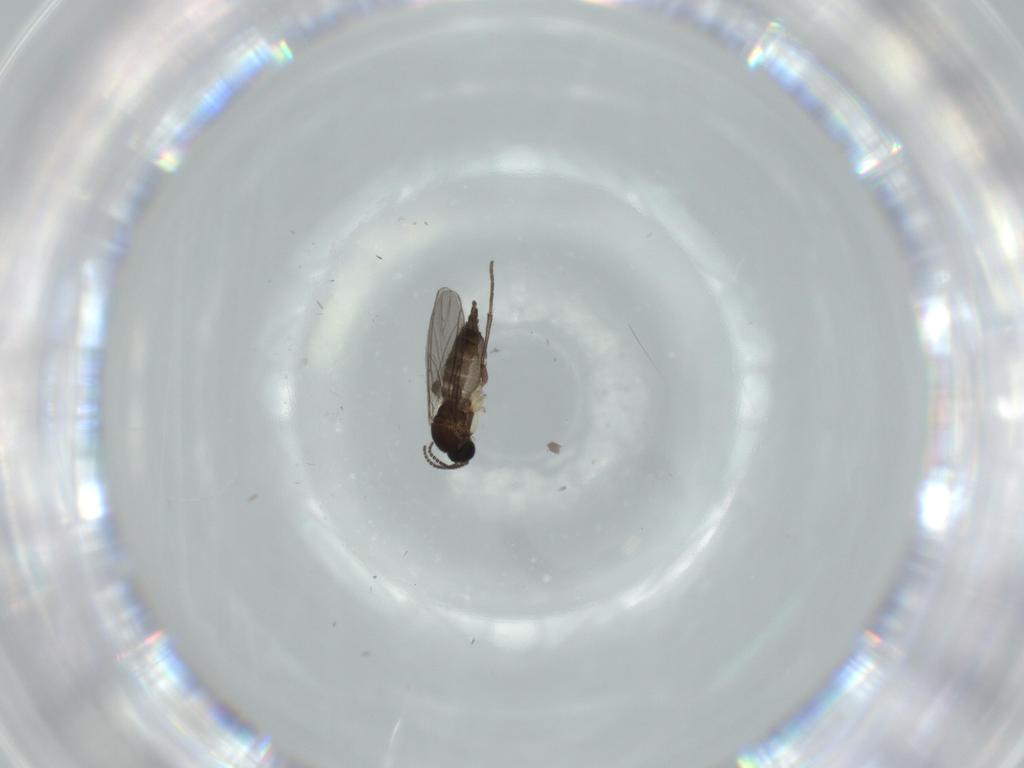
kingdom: Animalia
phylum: Arthropoda
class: Insecta
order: Diptera
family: Sciaridae
